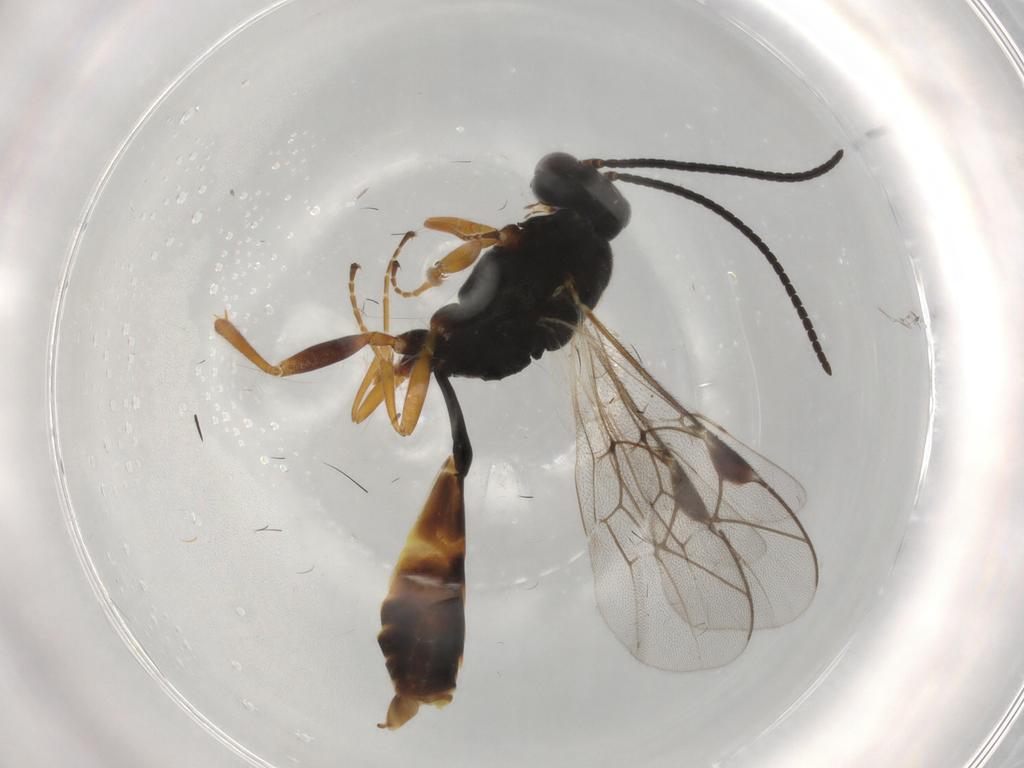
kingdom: Animalia
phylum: Arthropoda
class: Insecta
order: Hymenoptera
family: Ichneumonidae
